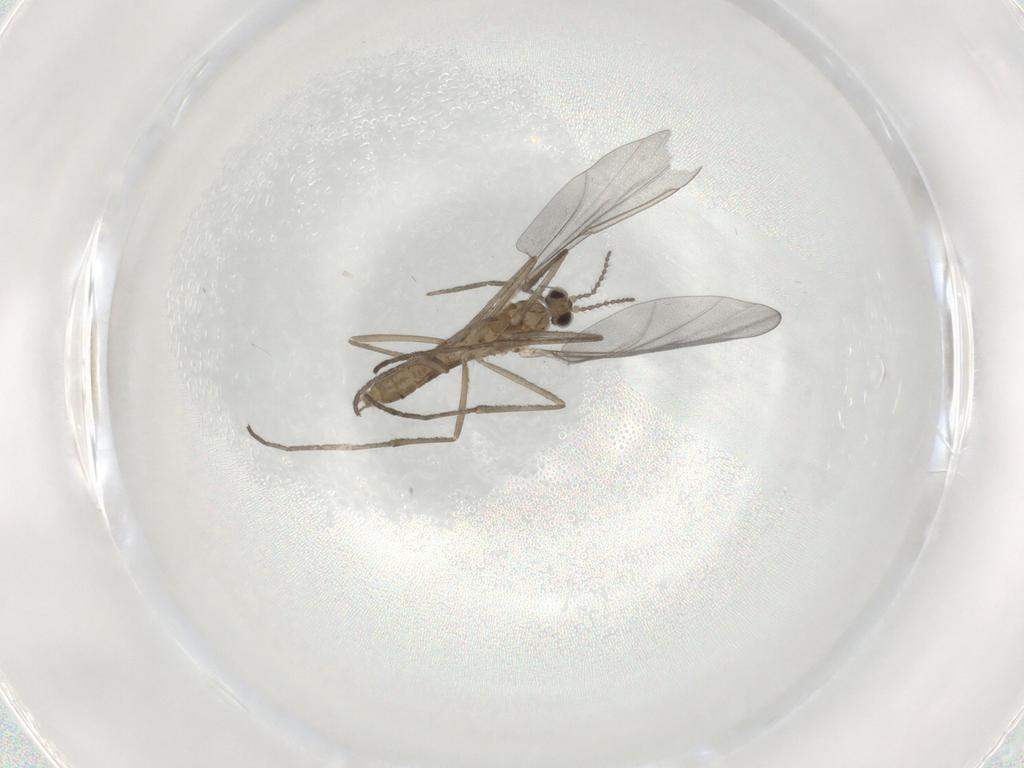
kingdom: Animalia
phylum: Arthropoda
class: Insecta
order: Diptera
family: Cecidomyiidae
